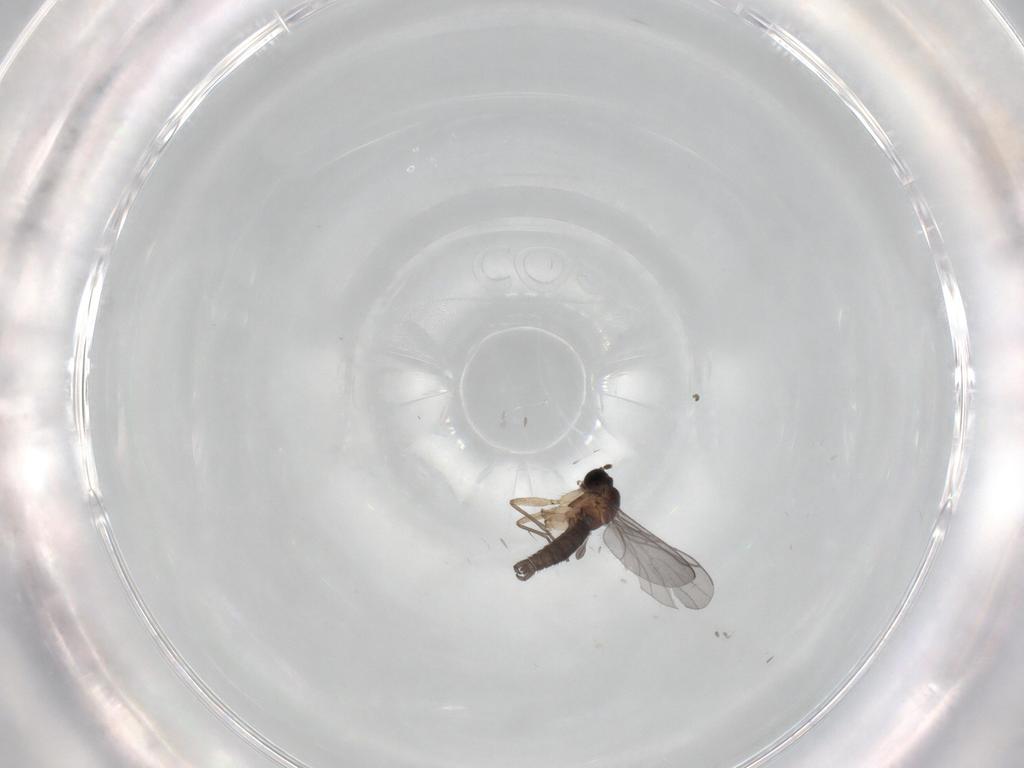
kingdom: Animalia
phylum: Arthropoda
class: Insecta
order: Diptera
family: Sciaridae
